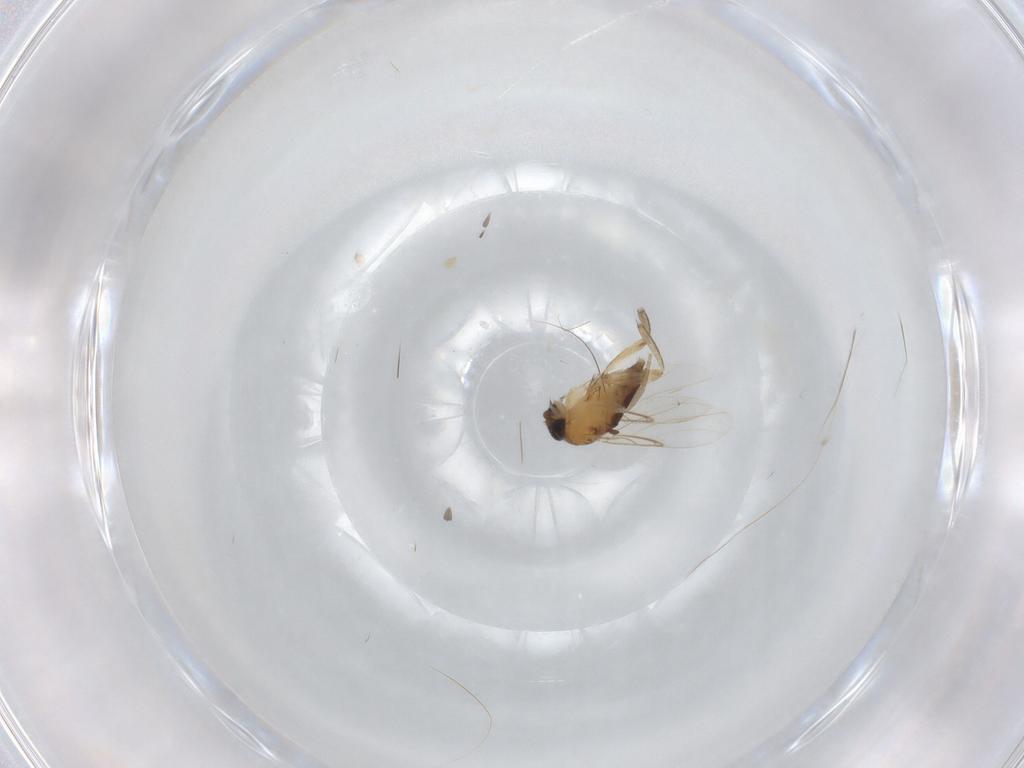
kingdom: Animalia
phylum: Arthropoda
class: Insecta
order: Diptera
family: Phoridae
